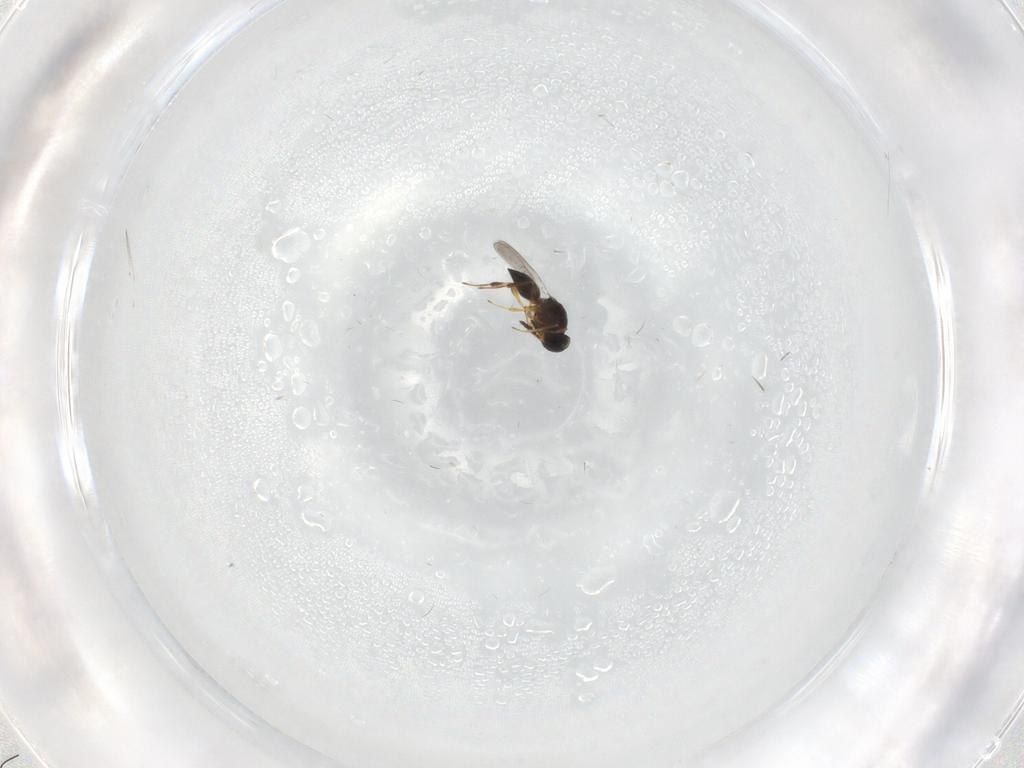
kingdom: Animalia
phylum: Arthropoda
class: Insecta
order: Hymenoptera
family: Platygastridae
